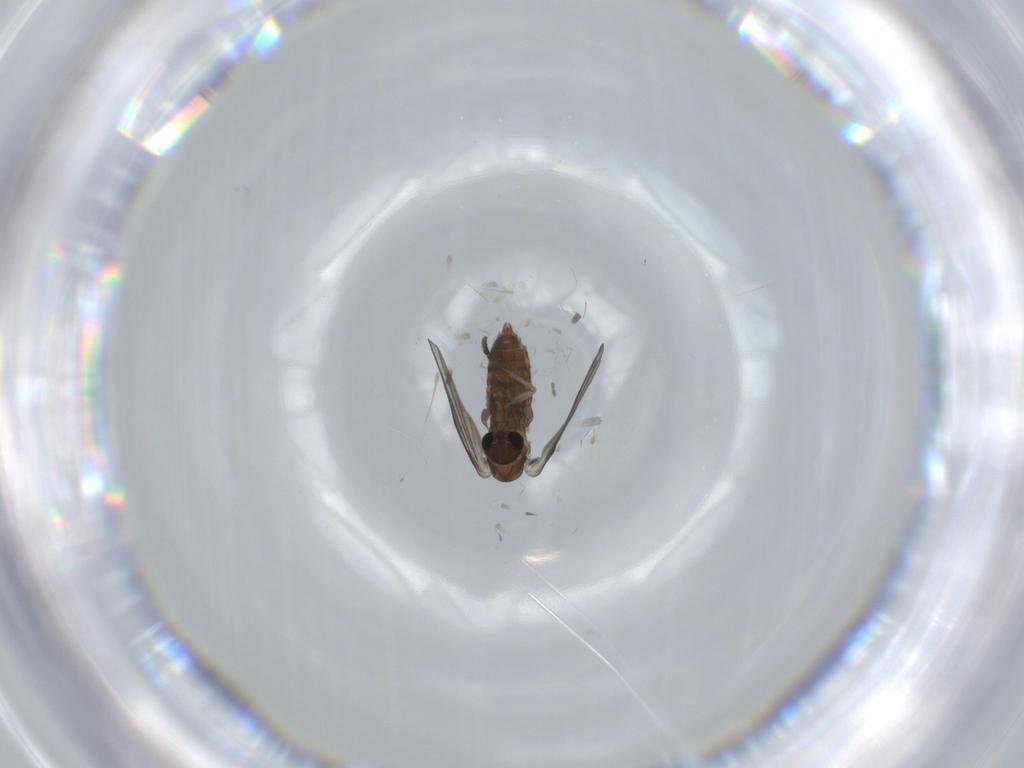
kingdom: Animalia
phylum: Arthropoda
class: Insecta
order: Diptera
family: Psychodidae
